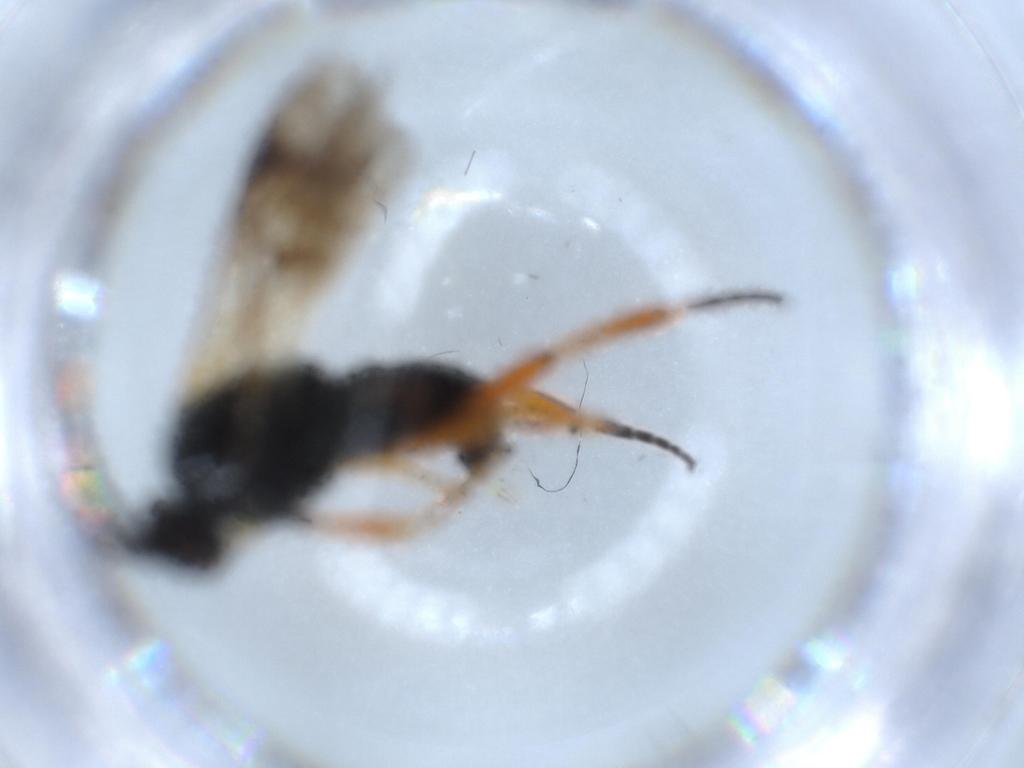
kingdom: Animalia
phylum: Arthropoda
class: Insecta
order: Hymenoptera
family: Braconidae
